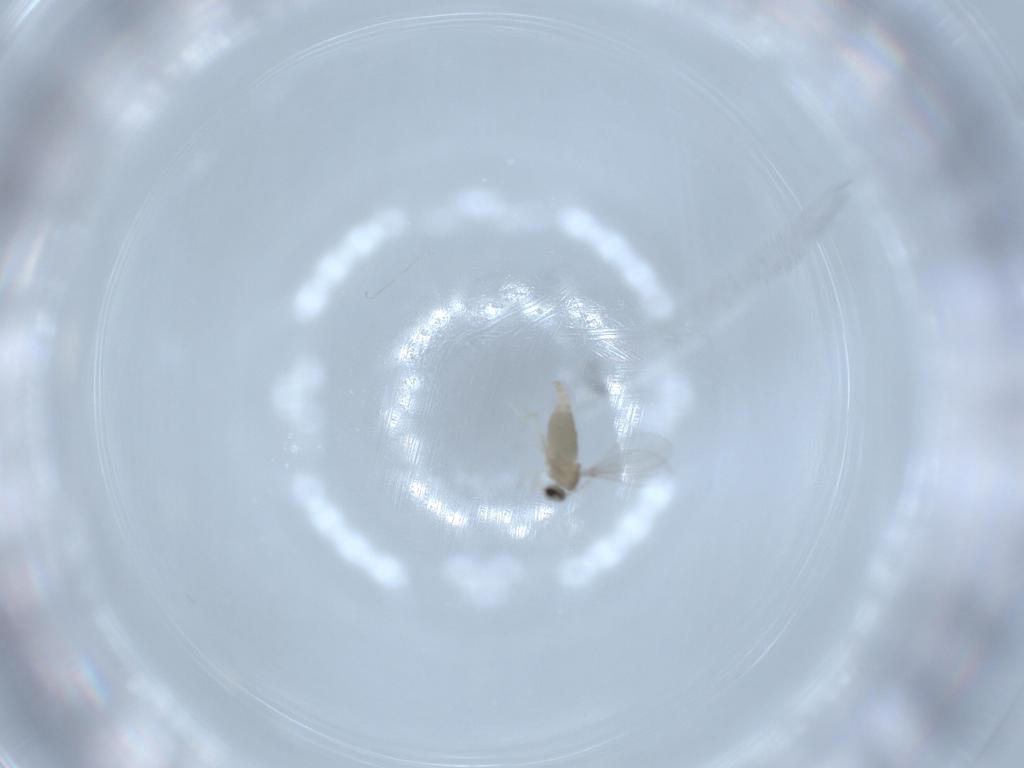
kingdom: Animalia
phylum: Arthropoda
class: Insecta
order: Diptera
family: Cecidomyiidae
